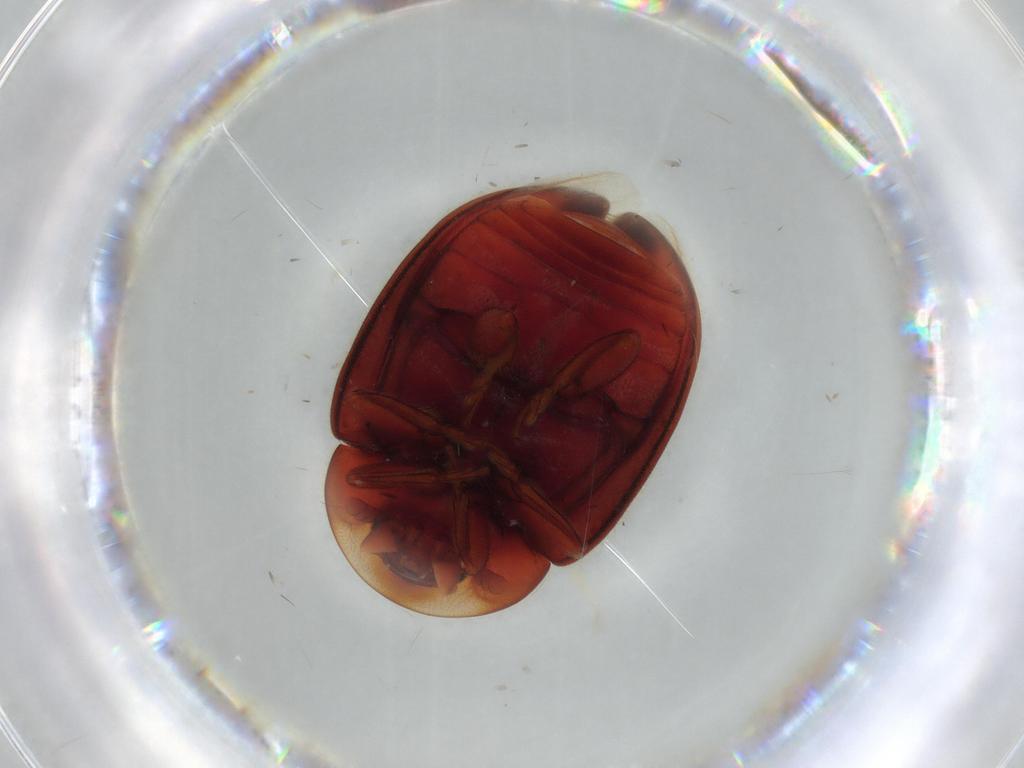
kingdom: Animalia
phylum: Arthropoda
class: Insecta
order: Coleoptera
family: Coccinellidae
